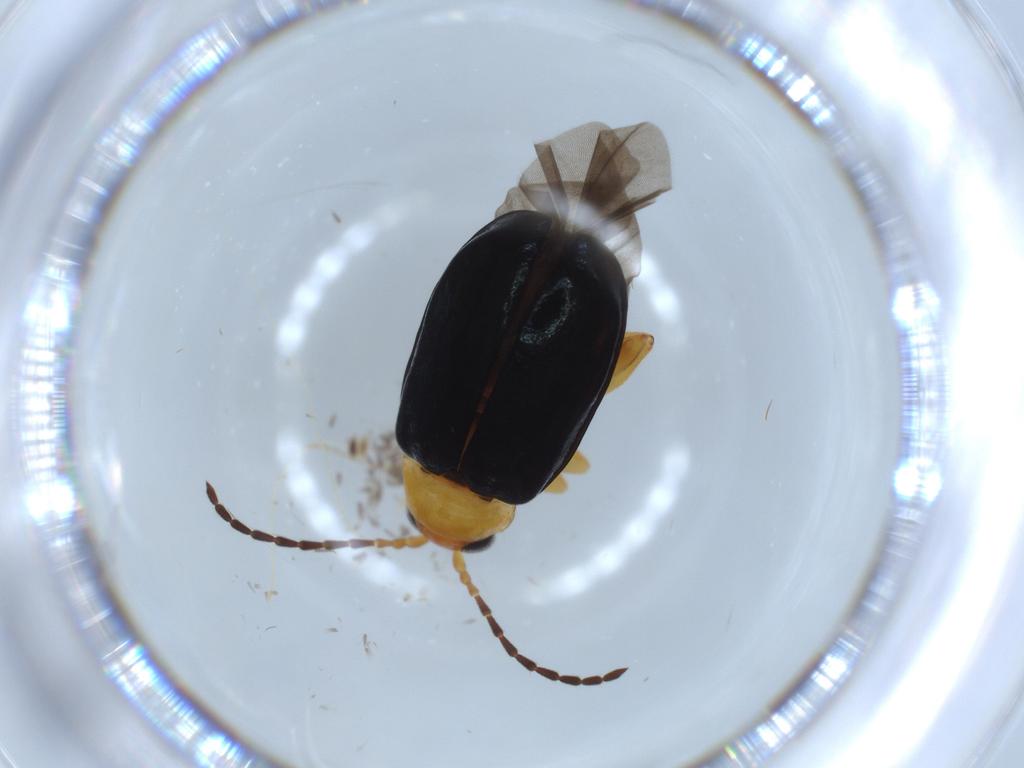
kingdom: Animalia
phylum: Arthropoda
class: Insecta
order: Coleoptera
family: Chrysomelidae
